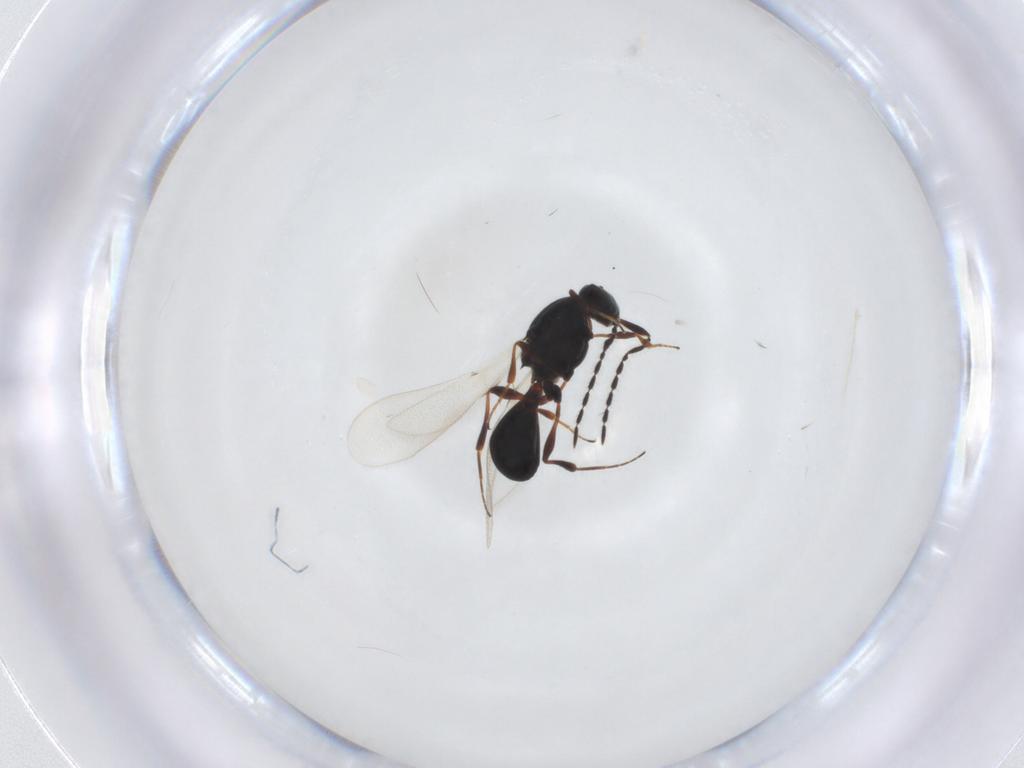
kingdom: Animalia
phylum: Arthropoda
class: Insecta
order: Hymenoptera
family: Platygastridae
